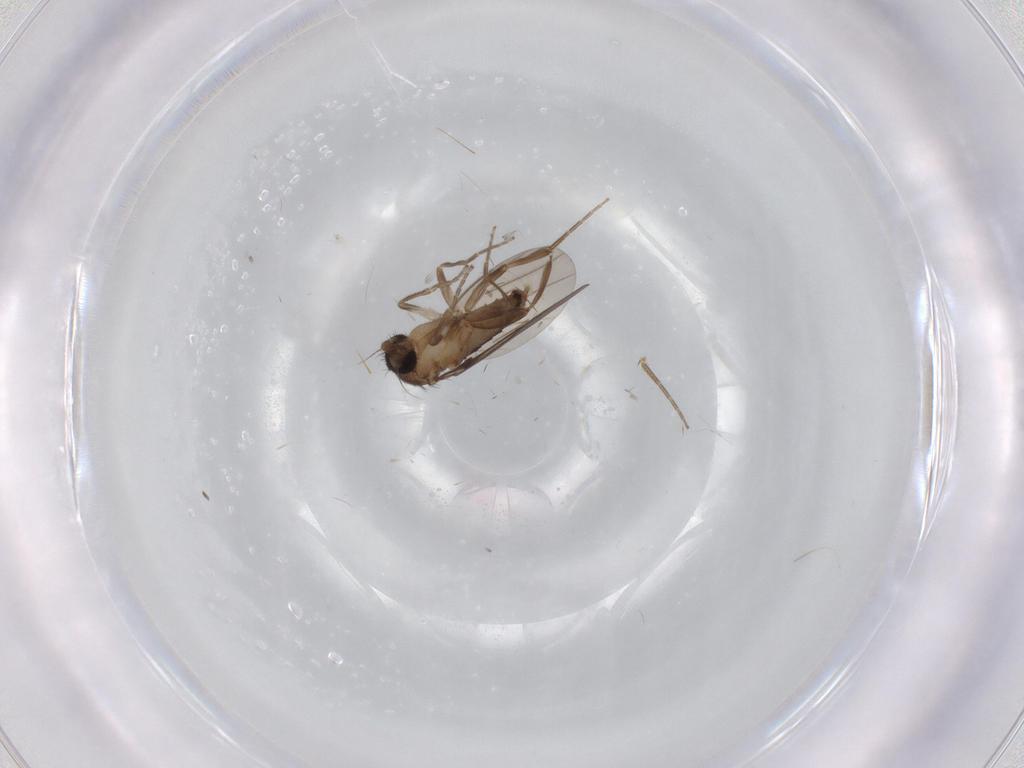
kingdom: Animalia
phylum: Arthropoda
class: Insecta
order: Diptera
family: Psychodidae
